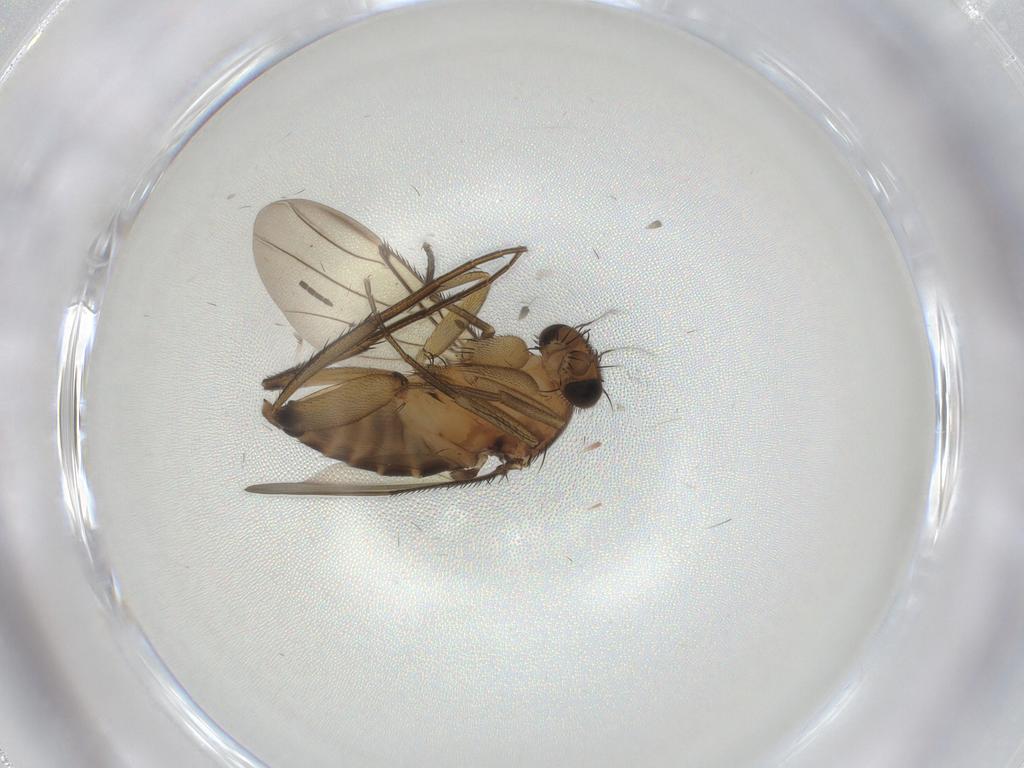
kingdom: Animalia
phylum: Arthropoda
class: Insecta
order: Diptera
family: Phoridae
